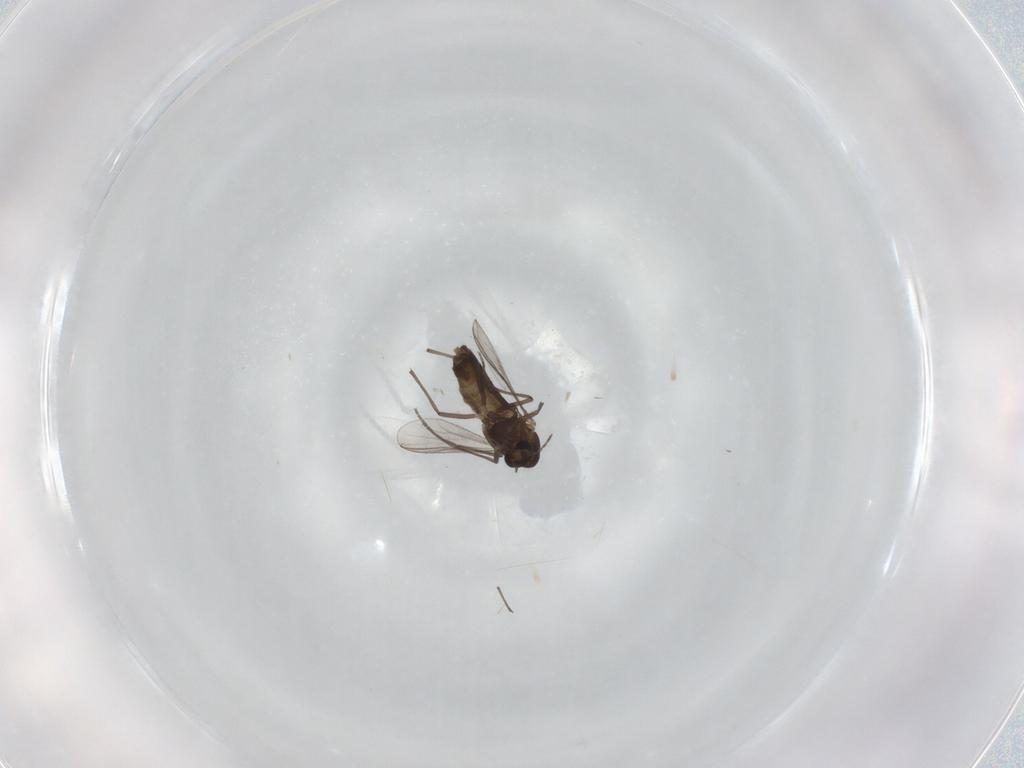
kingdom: Animalia
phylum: Arthropoda
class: Insecta
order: Diptera
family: Chironomidae
